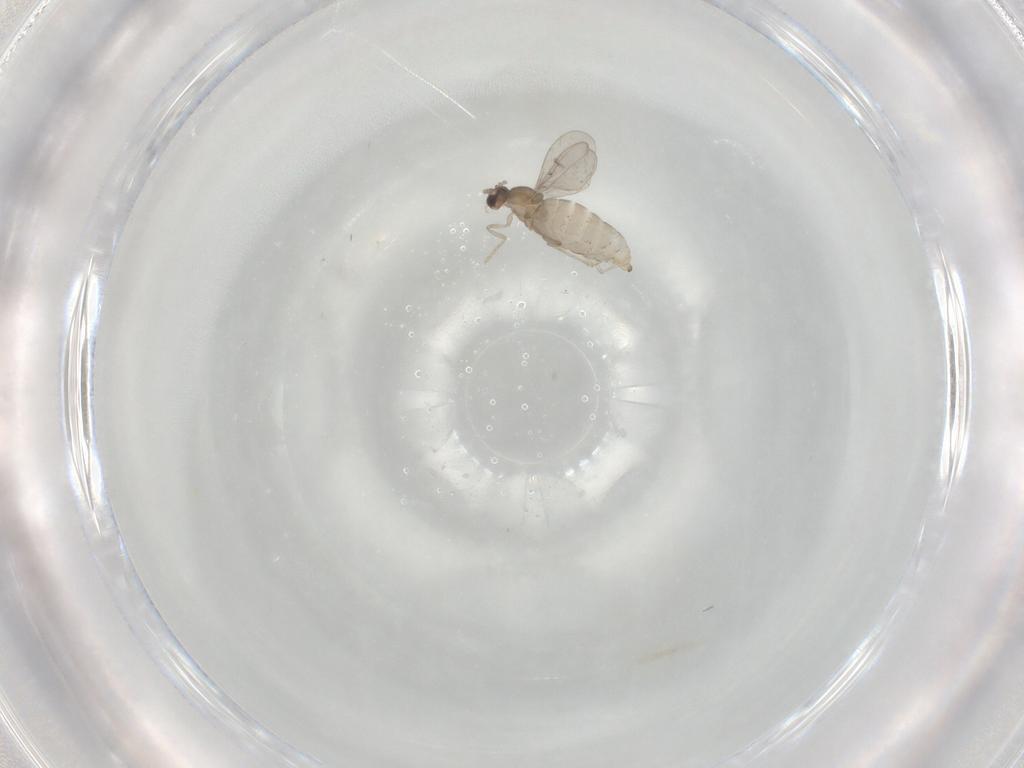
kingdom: Animalia
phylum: Arthropoda
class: Insecta
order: Diptera
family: Cecidomyiidae
